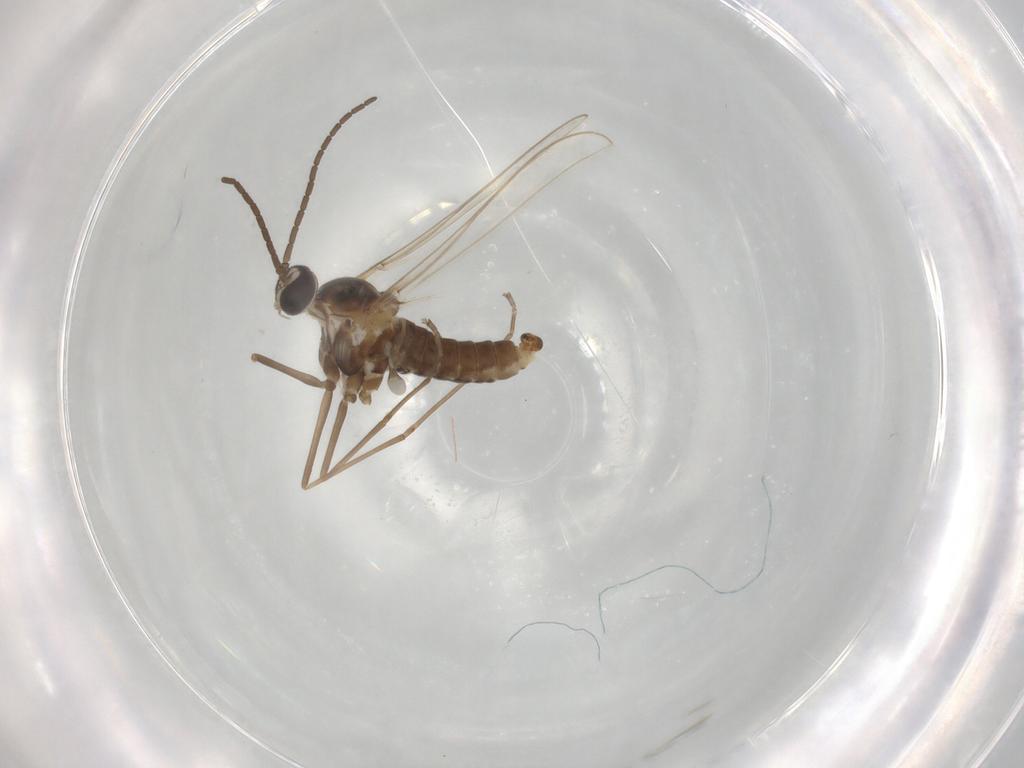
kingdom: Animalia
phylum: Arthropoda
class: Insecta
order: Diptera
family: Cecidomyiidae
